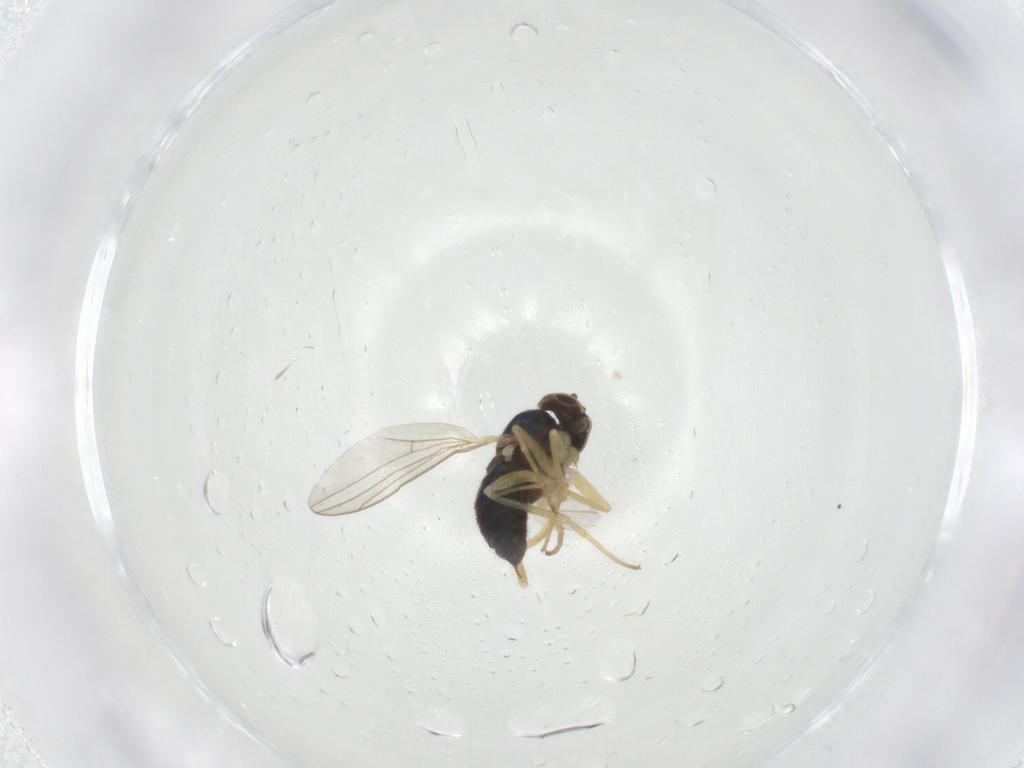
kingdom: Animalia
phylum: Arthropoda
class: Insecta
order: Diptera
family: Dolichopodidae
